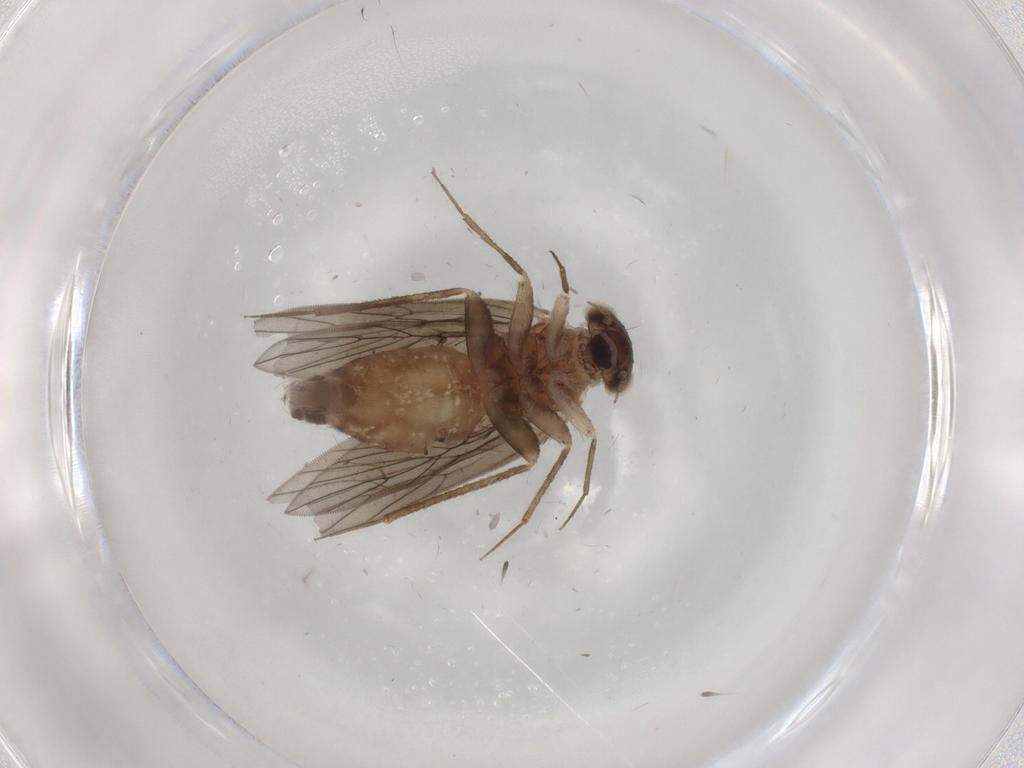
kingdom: Animalia
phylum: Arthropoda
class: Insecta
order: Psocodea
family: Lepidopsocidae
